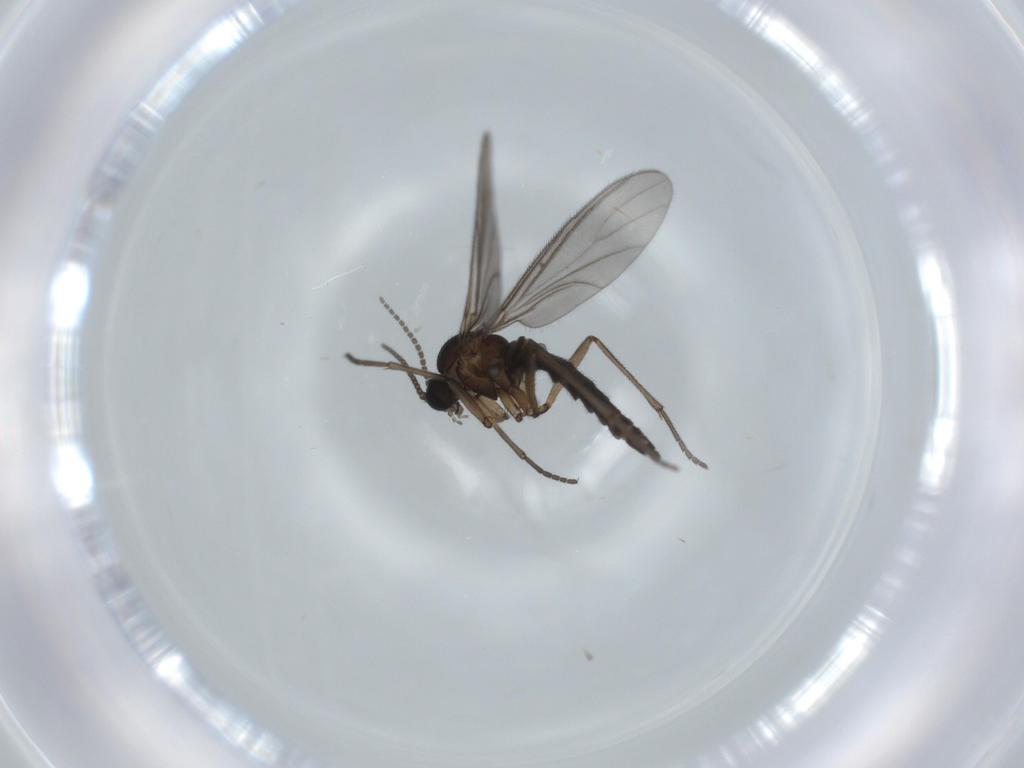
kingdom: Animalia
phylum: Arthropoda
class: Insecta
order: Diptera
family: Sciaridae
